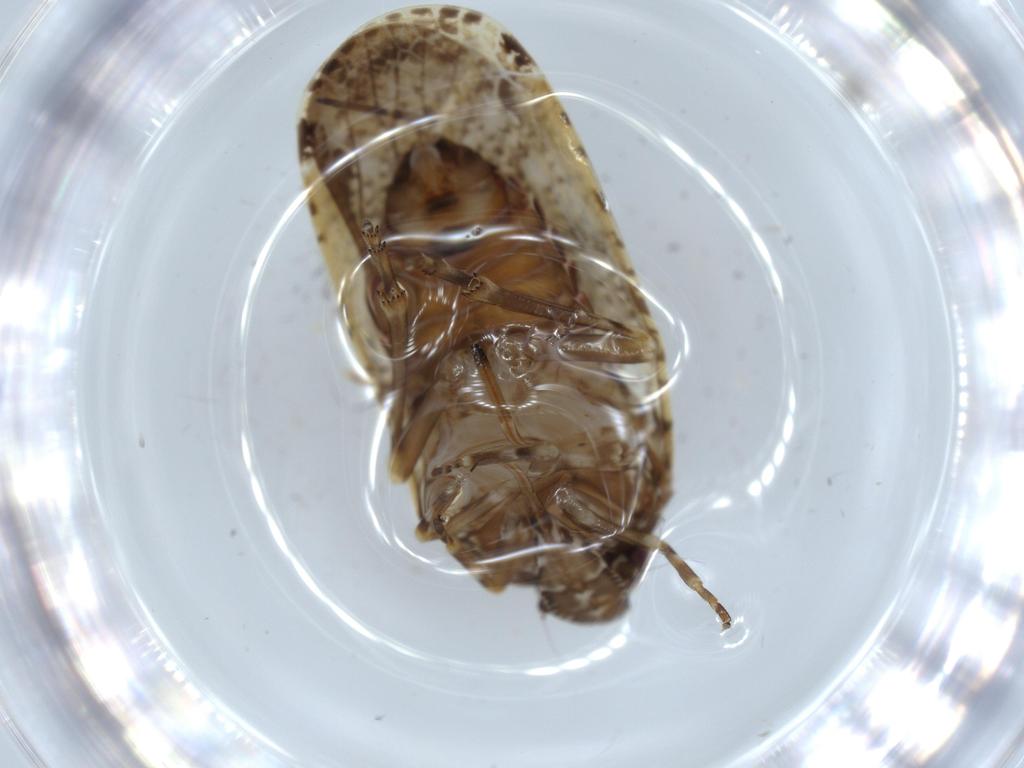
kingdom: Animalia
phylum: Arthropoda
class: Insecta
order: Hemiptera
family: Achilidae
